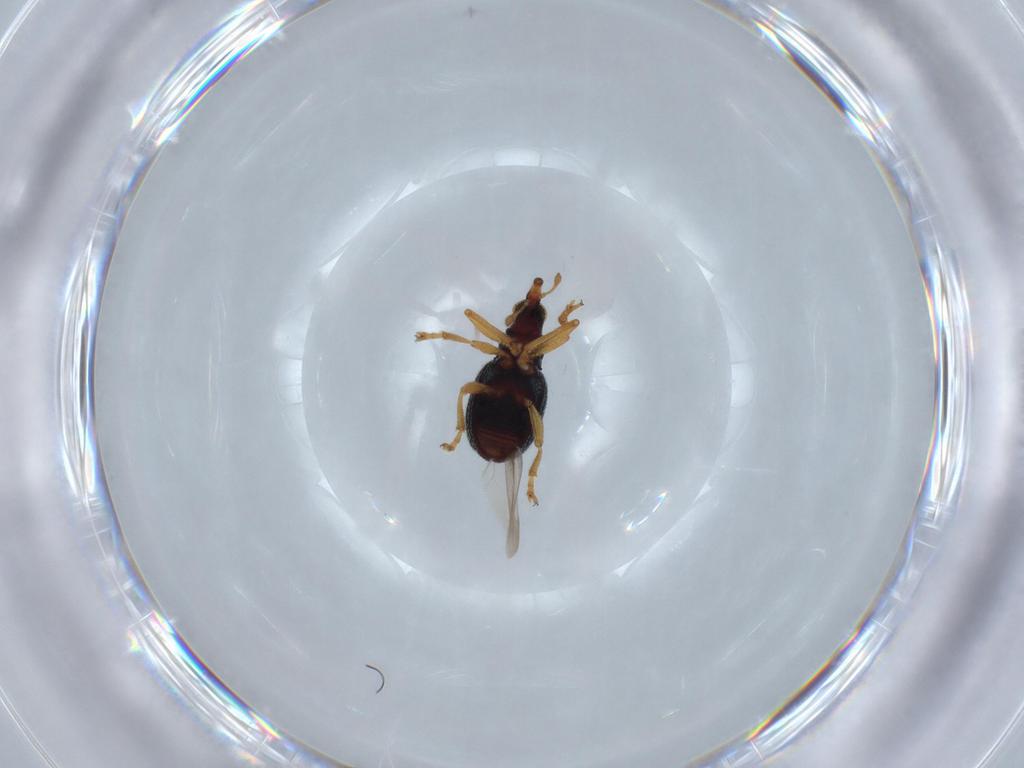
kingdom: Animalia
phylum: Arthropoda
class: Insecta
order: Coleoptera
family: Brentidae
